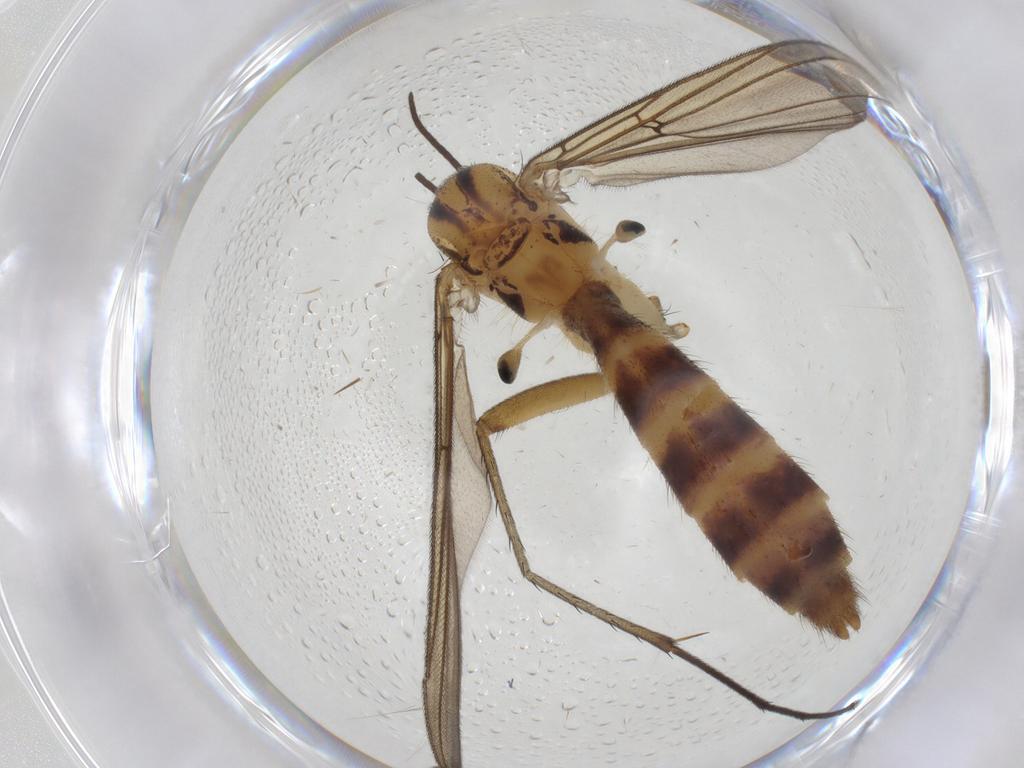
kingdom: Animalia
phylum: Arthropoda
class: Insecta
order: Diptera
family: Mycetophilidae
